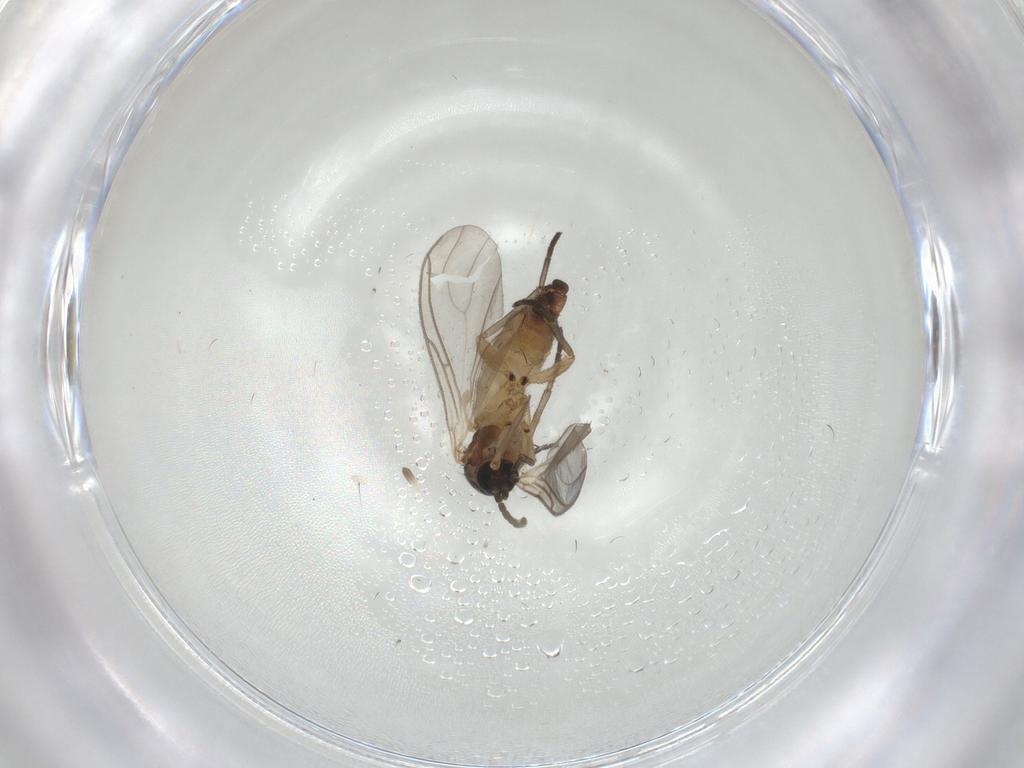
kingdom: Animalia
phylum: Arthropoda
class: Insecta
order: Diptera
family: Sciaridae
